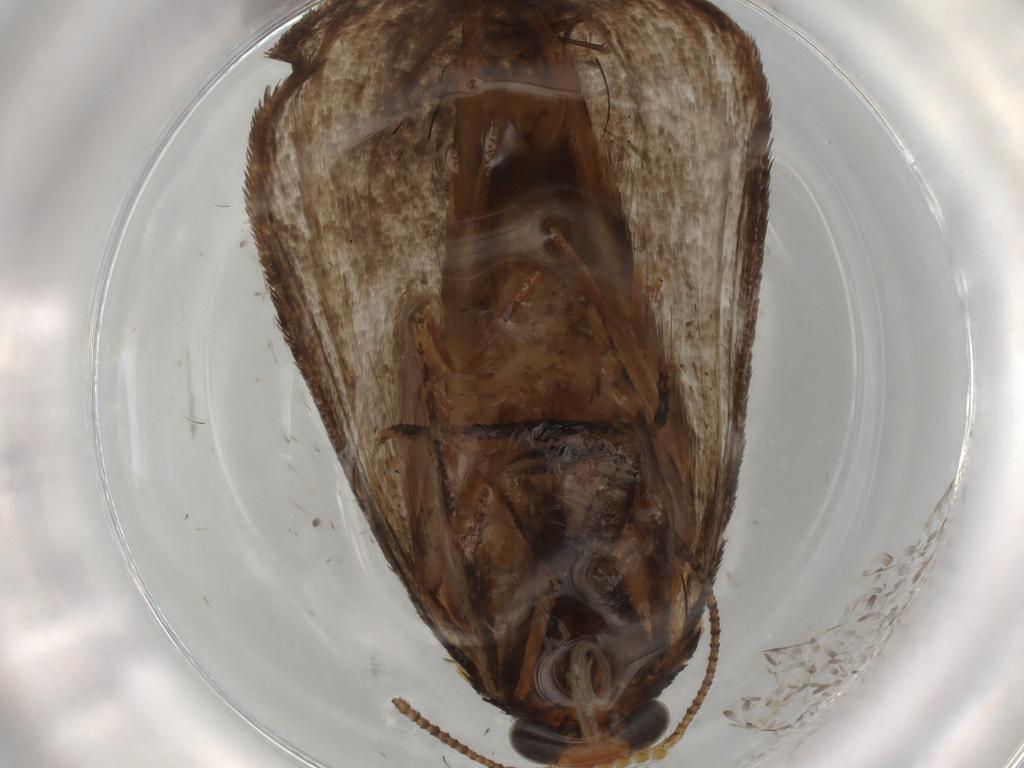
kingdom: Animalia
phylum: Arthropoda
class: Insecta
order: Lepidoptera
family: Oecophoridae
